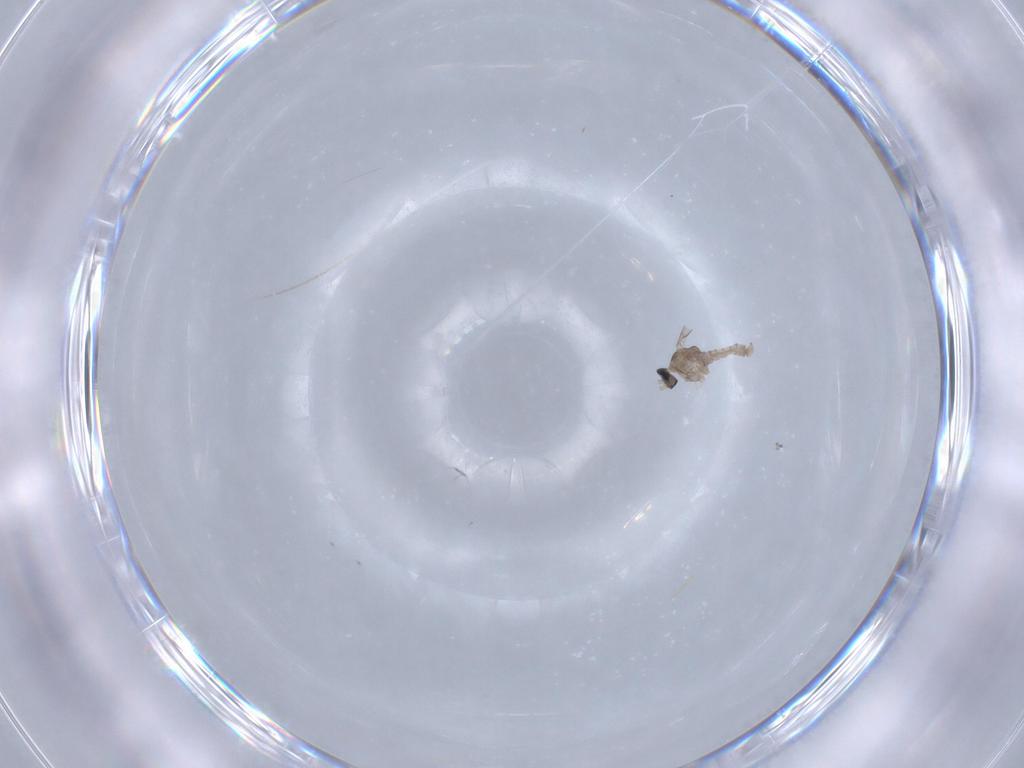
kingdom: Animalia
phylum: Arthropoda
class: Insecta
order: Diptera
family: Cecidomyiidae
